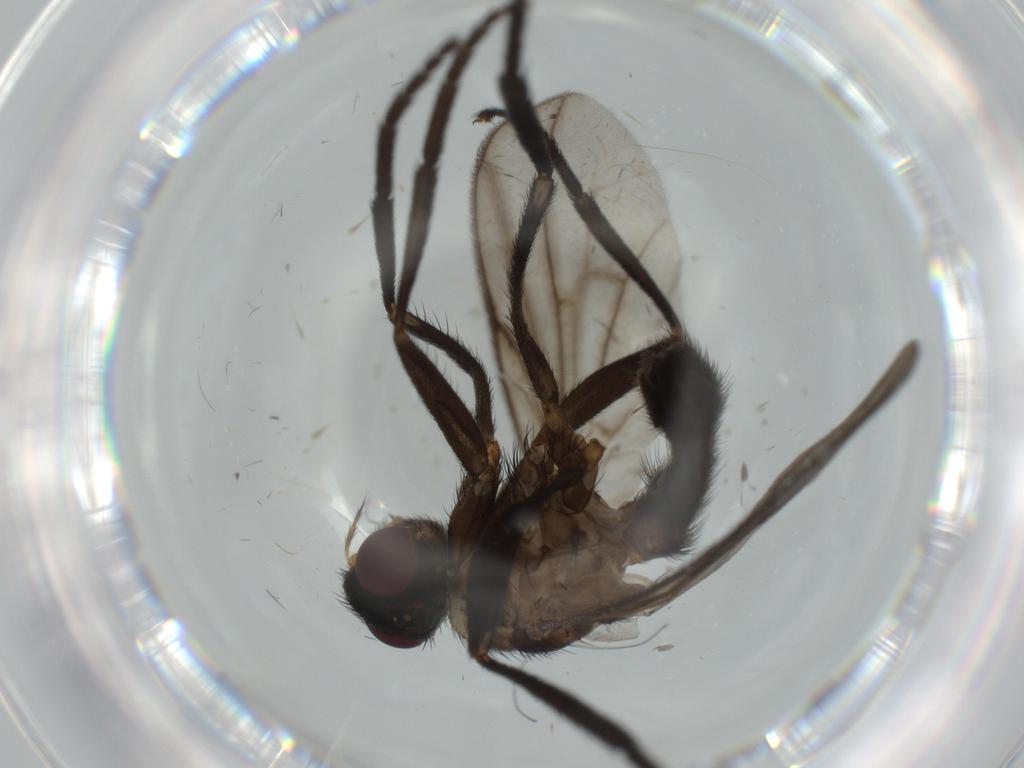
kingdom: Animalia
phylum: Arthropoda
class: Insecta
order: Diptera
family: Calliphoridae
